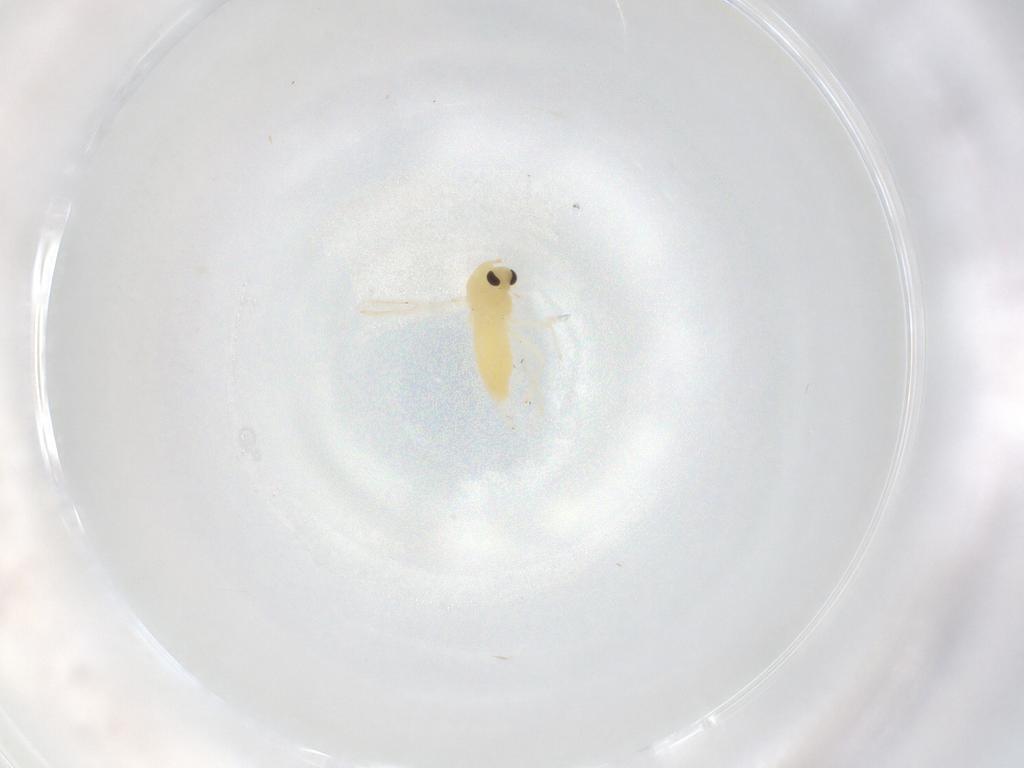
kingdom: Animalia
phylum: Arthropoda
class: Insecta
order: Diptera
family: Chironomidae
